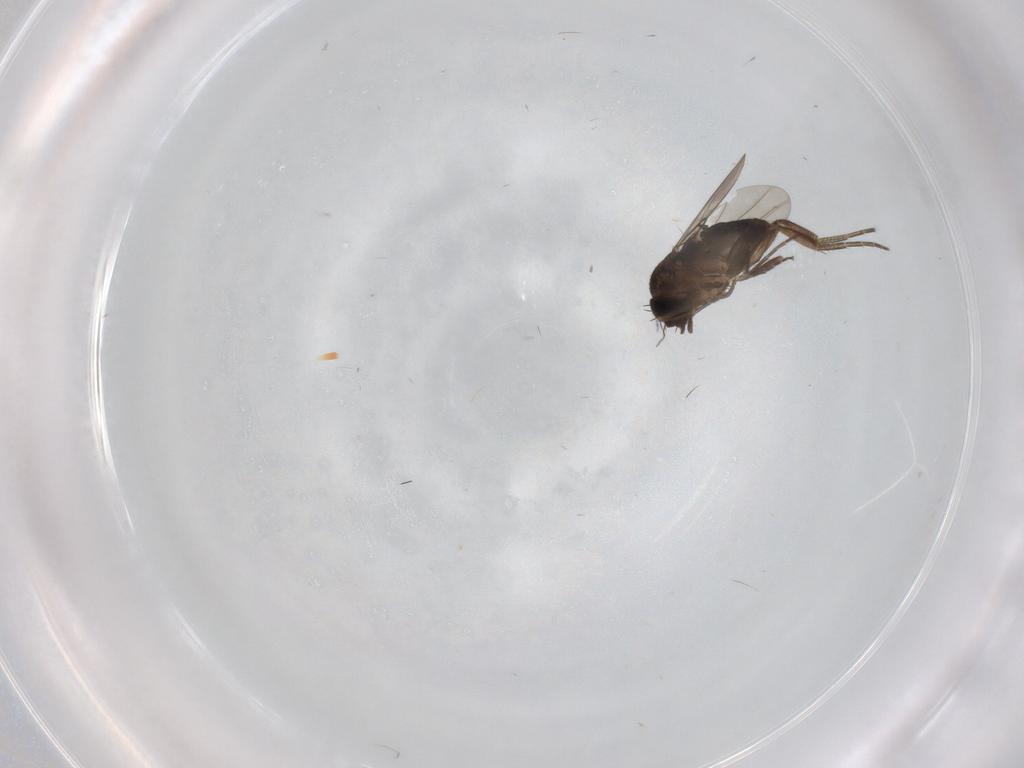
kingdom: Animalia
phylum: Arthropoda
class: Insecta
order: Diptera
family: Phoridae
